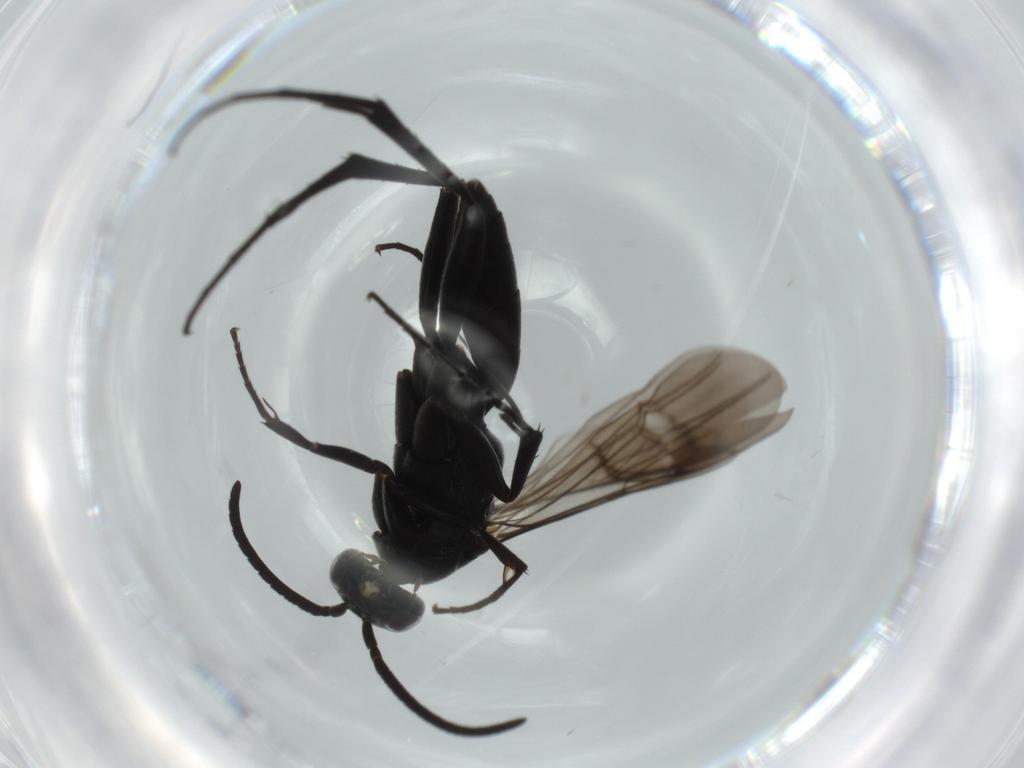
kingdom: Animalia
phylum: Arthropoda
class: Insecta
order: Hymenoptera
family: Pompilidae
